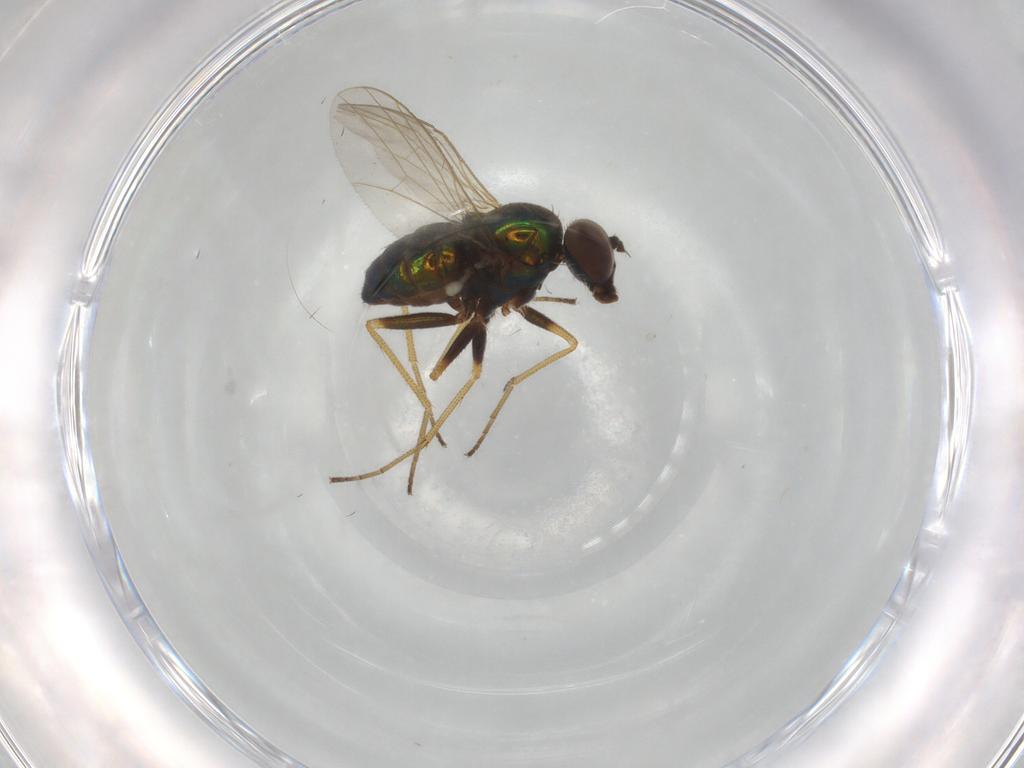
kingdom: Animalia
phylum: Arthropoda
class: Insecta
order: Diptera
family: Dolichopodidae
